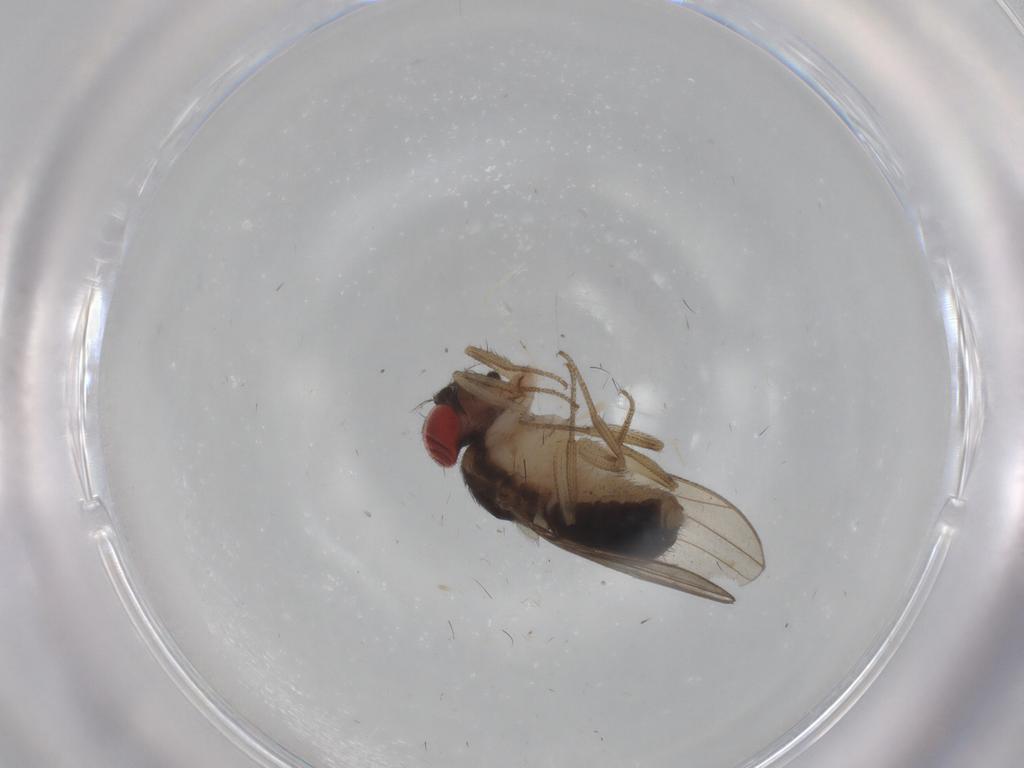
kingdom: Animalia
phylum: Arthropoda
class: Insecta
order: Diptera
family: Drosophilidae
